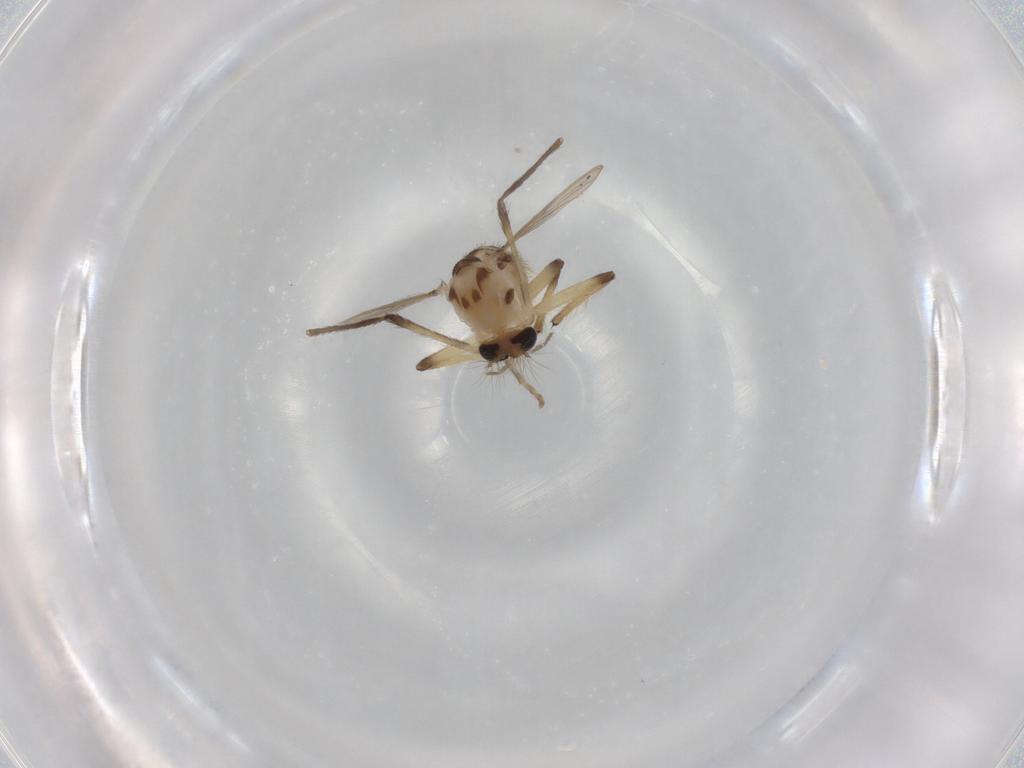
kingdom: Animalia
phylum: Arthropoda
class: Insecta
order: Diptera
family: Chironomidae
